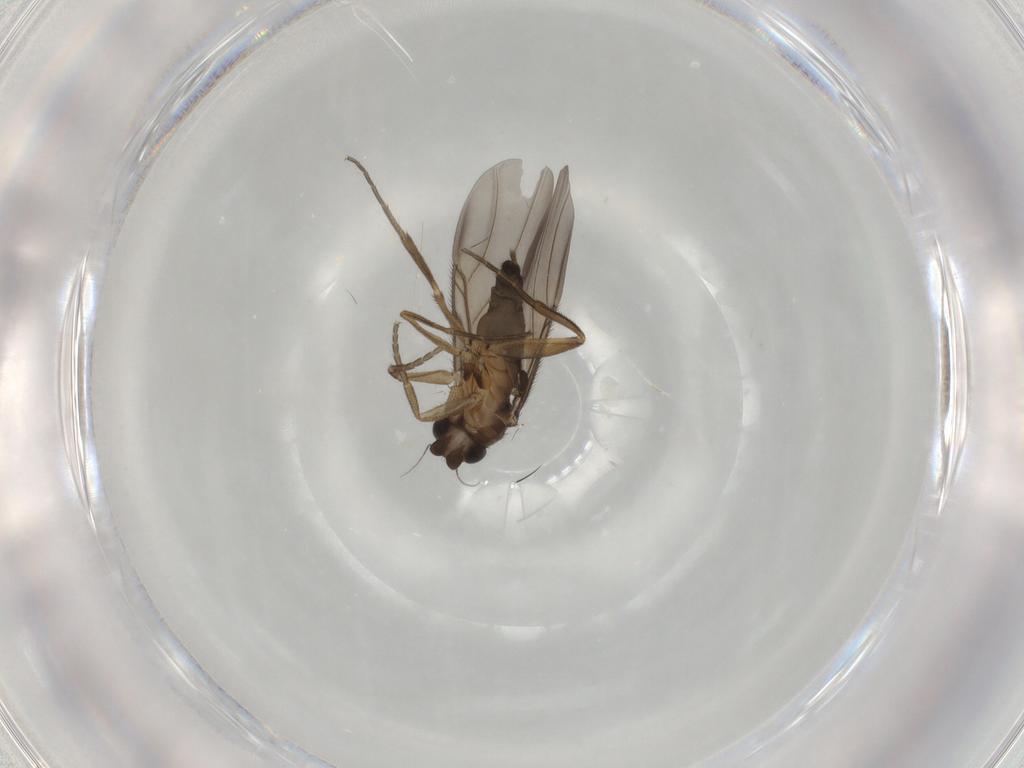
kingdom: Animalia
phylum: Arthropoda
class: Insecta
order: Diptera
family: Phoridae
